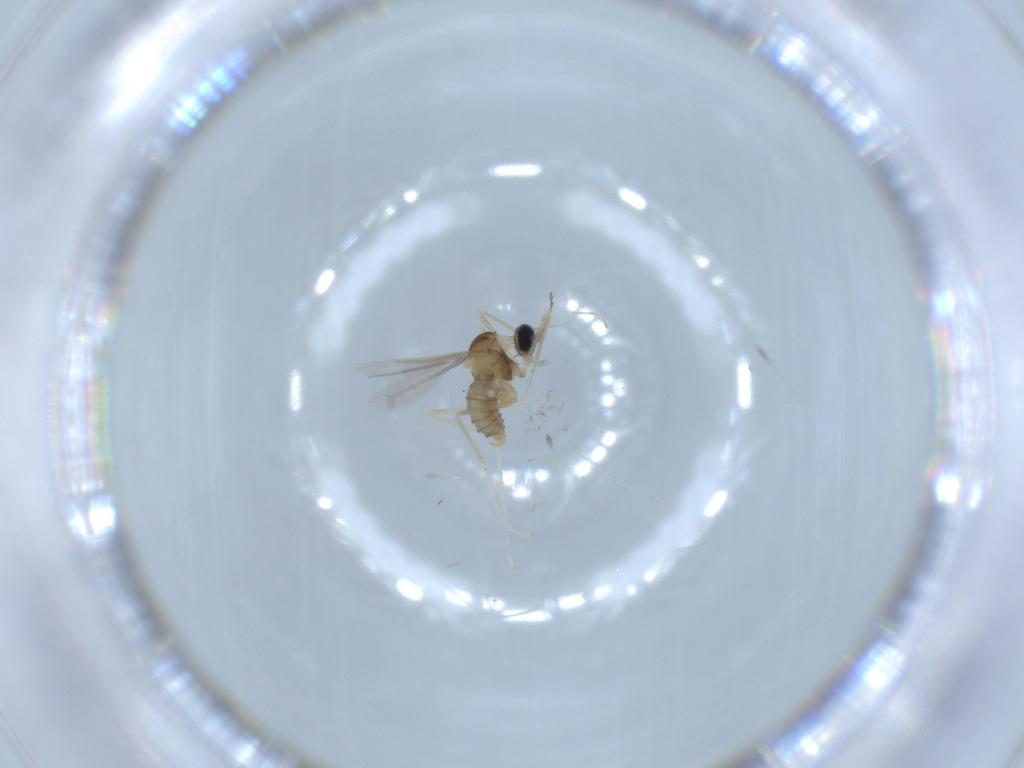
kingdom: Animalia
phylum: Arthropoda
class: Insecta
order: Diptera
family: Cecidomyiidae
